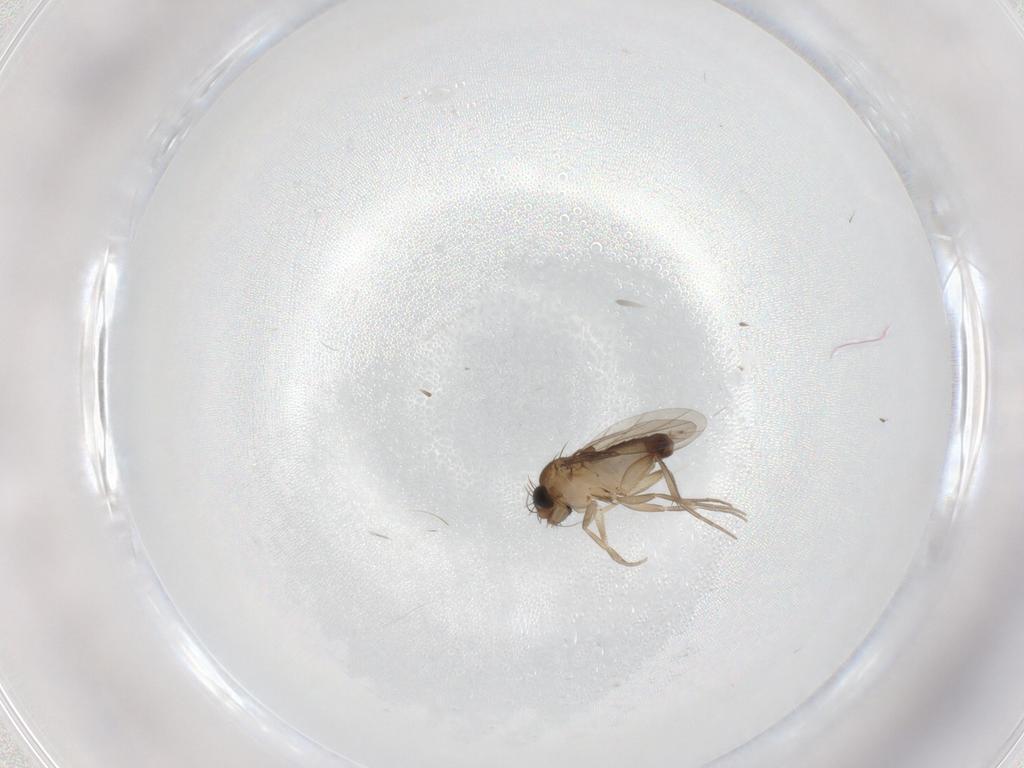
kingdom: Animalia
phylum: Arthropoda
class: Insecta
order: Diptera
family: Phoridae
